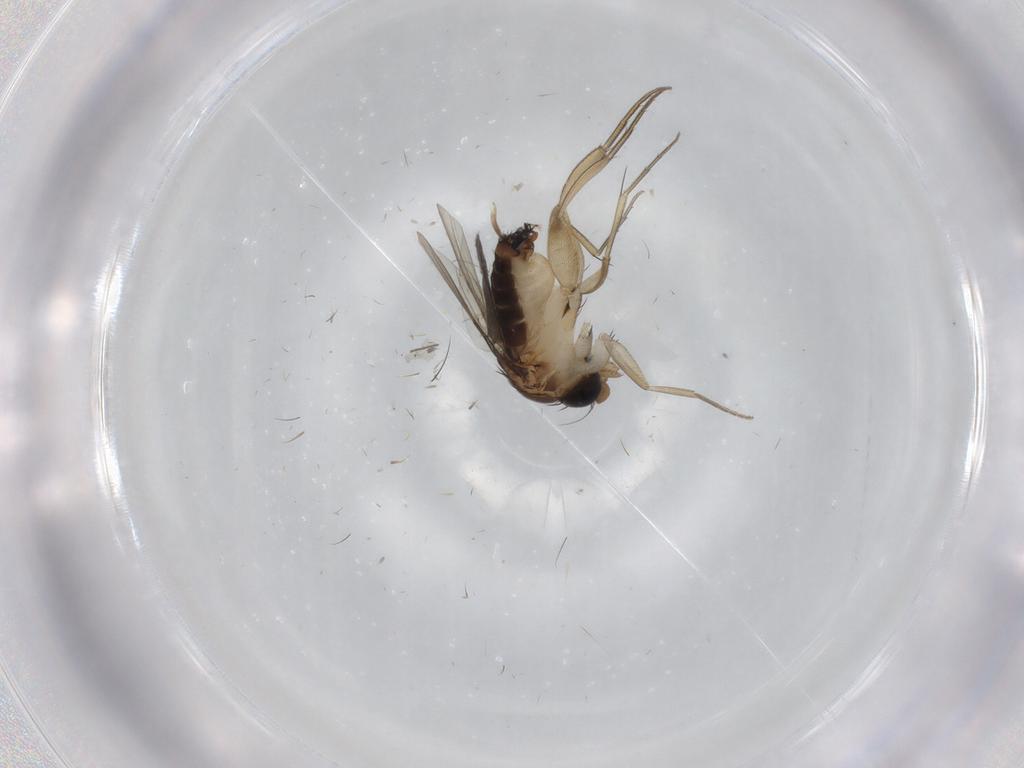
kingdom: Animalia
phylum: Arthropoda
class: Insecta
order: Diptera
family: Phoridae
